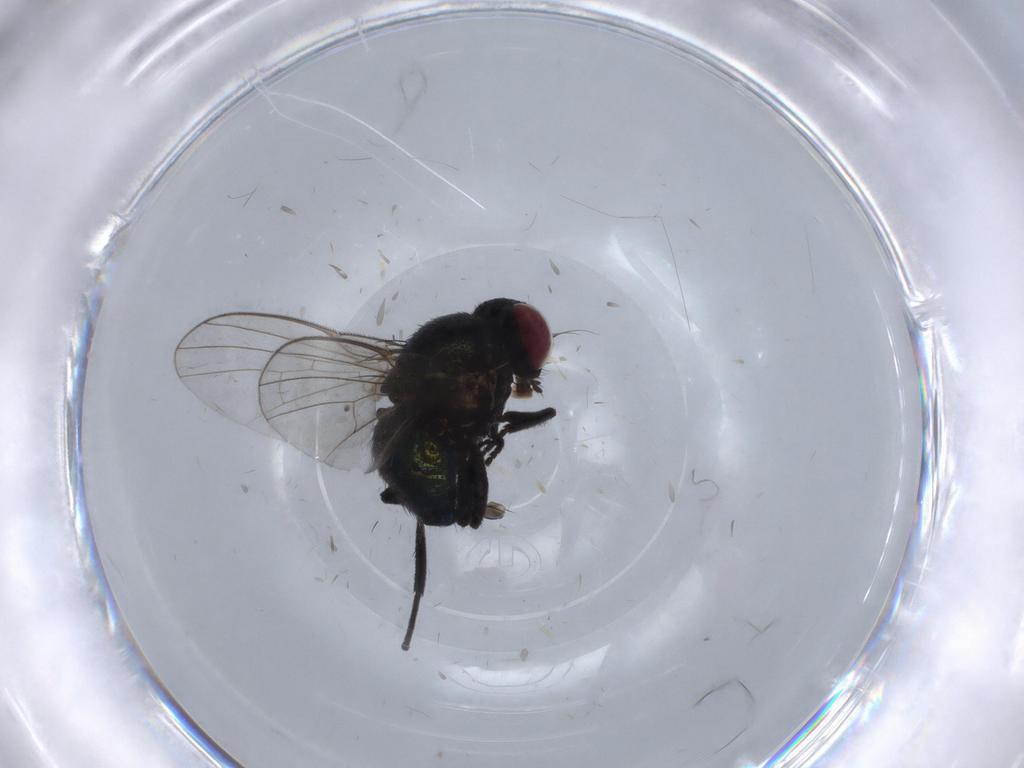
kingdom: Animalia
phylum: Arthropoda
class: Insecta
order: Diptera
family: Agromyzidae
